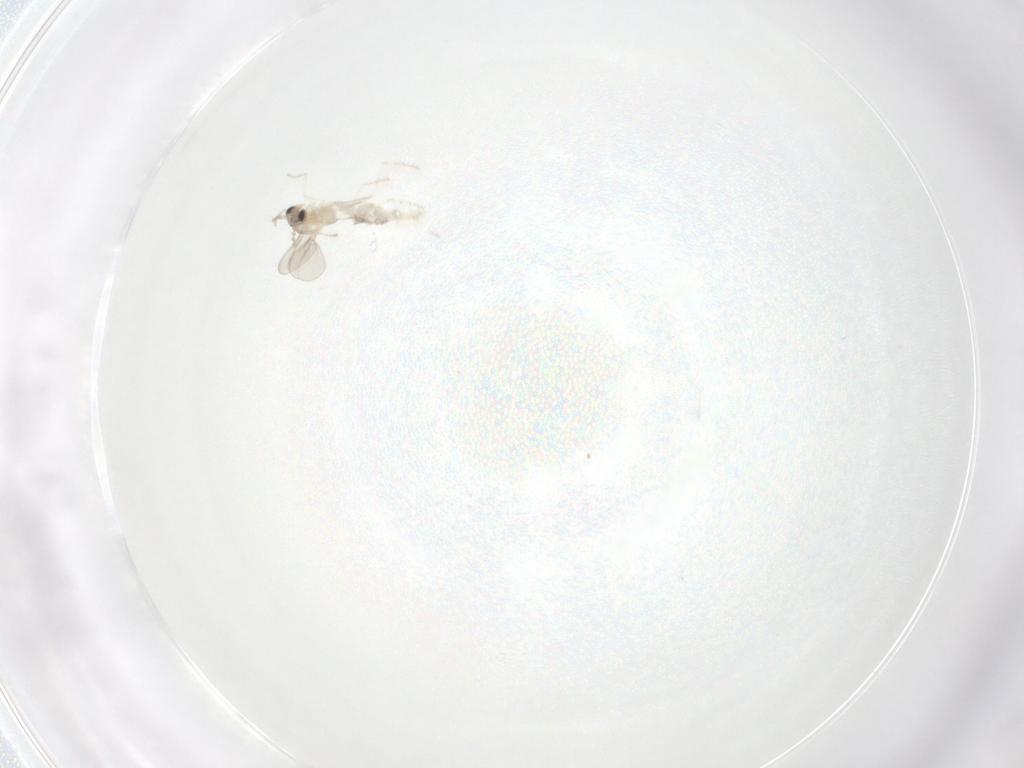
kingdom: Animalia
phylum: Arthropoda
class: Insecta
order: Diptera
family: Cecidomyiidae
